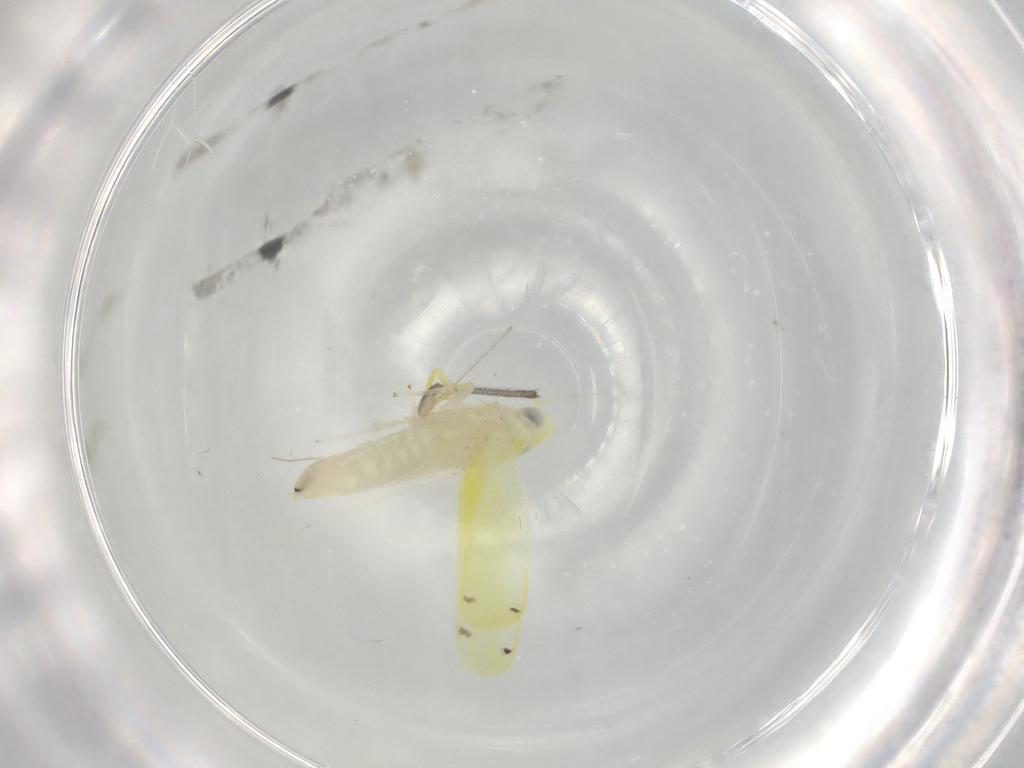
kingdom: Animalia
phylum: Arthropoda
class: Insecta
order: Hemiptera
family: Cicadellidae
